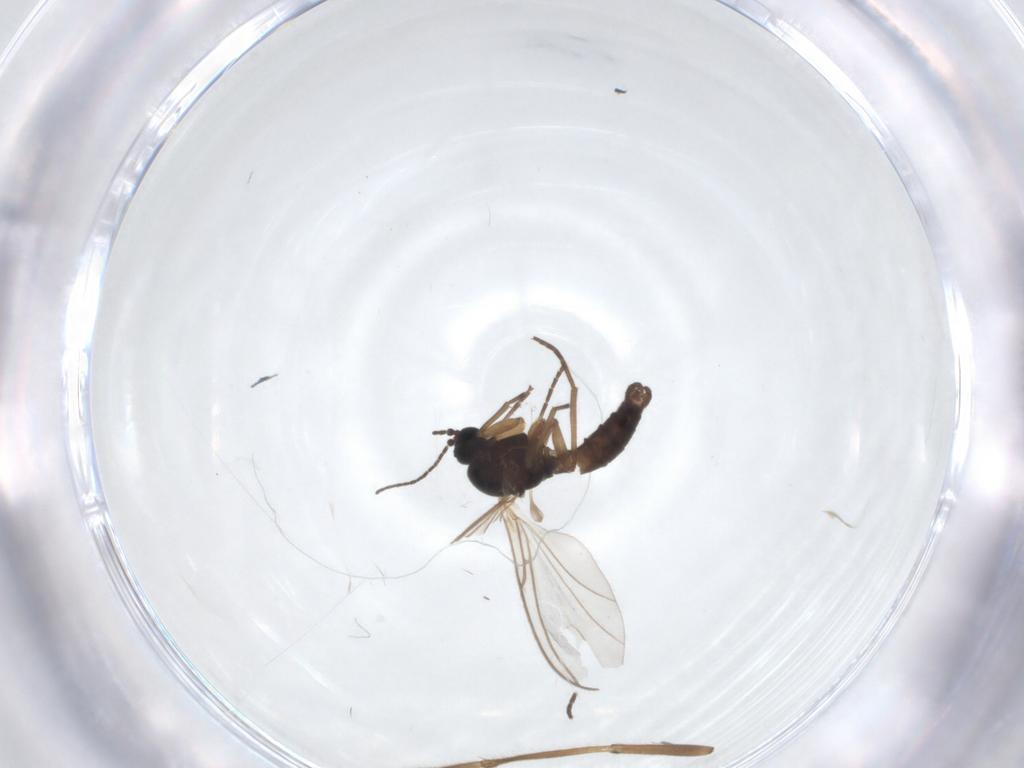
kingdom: Animalia
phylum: Arthropoda
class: Insecta
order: Diptera
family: Sciaridae
